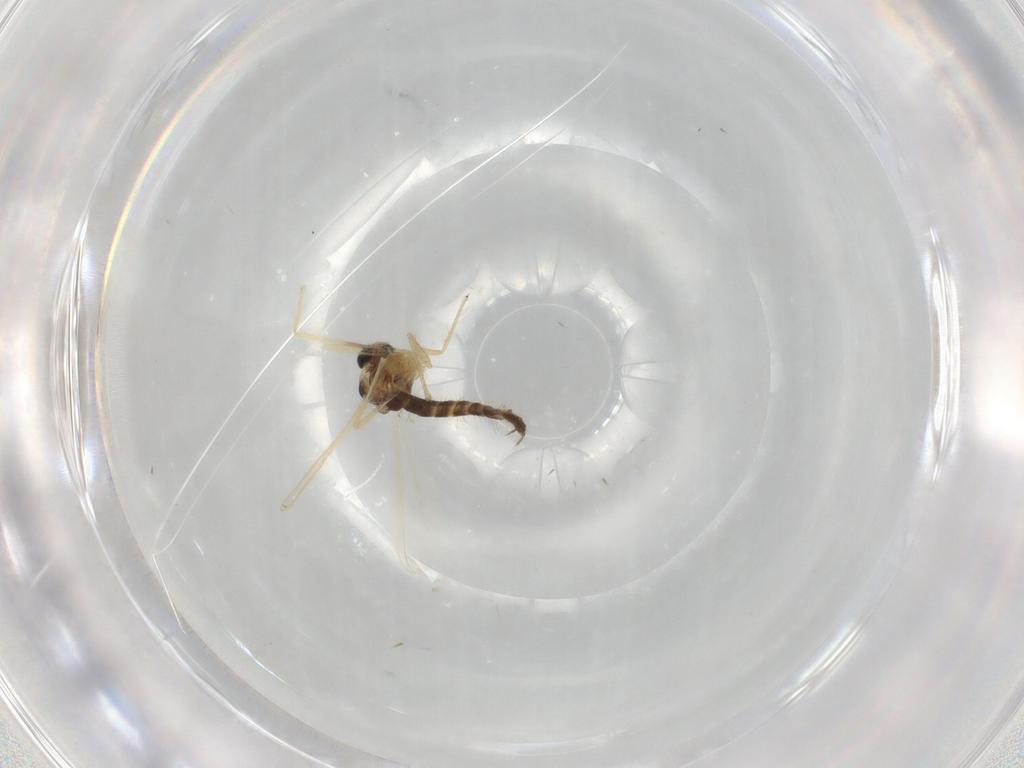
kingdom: Animalia
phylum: Arthropoda
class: Insecta
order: Diptera
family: Chironomidae
